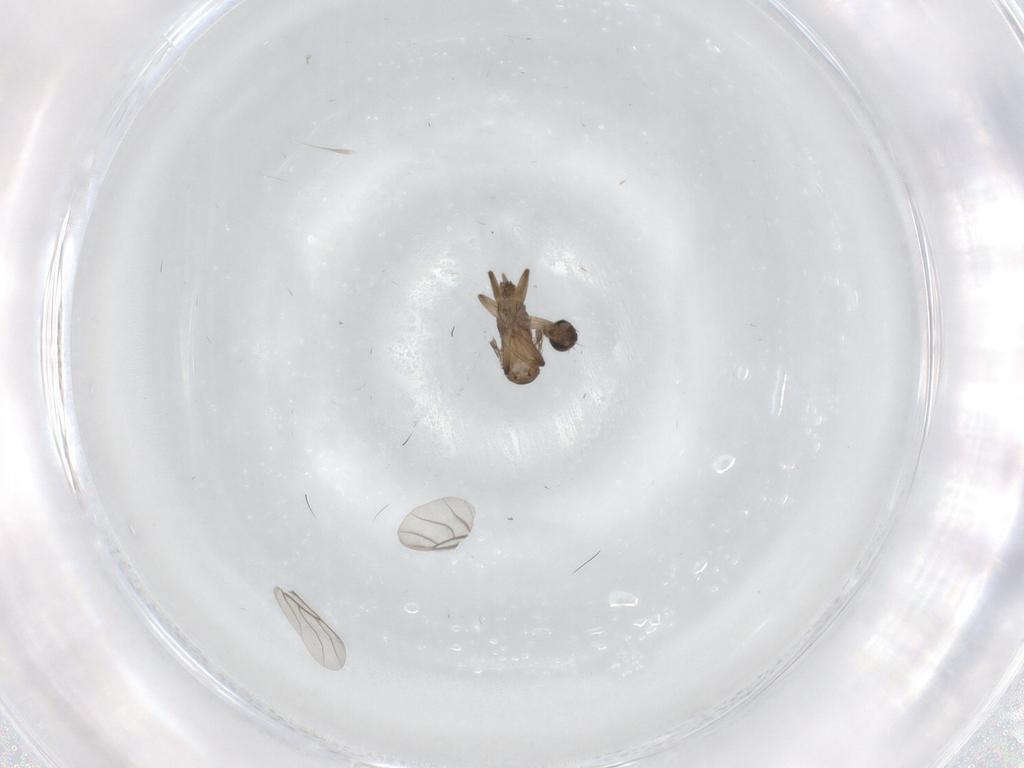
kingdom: Animalia
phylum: Arthropoda
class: Insecta
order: Diptera
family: Phoridae
